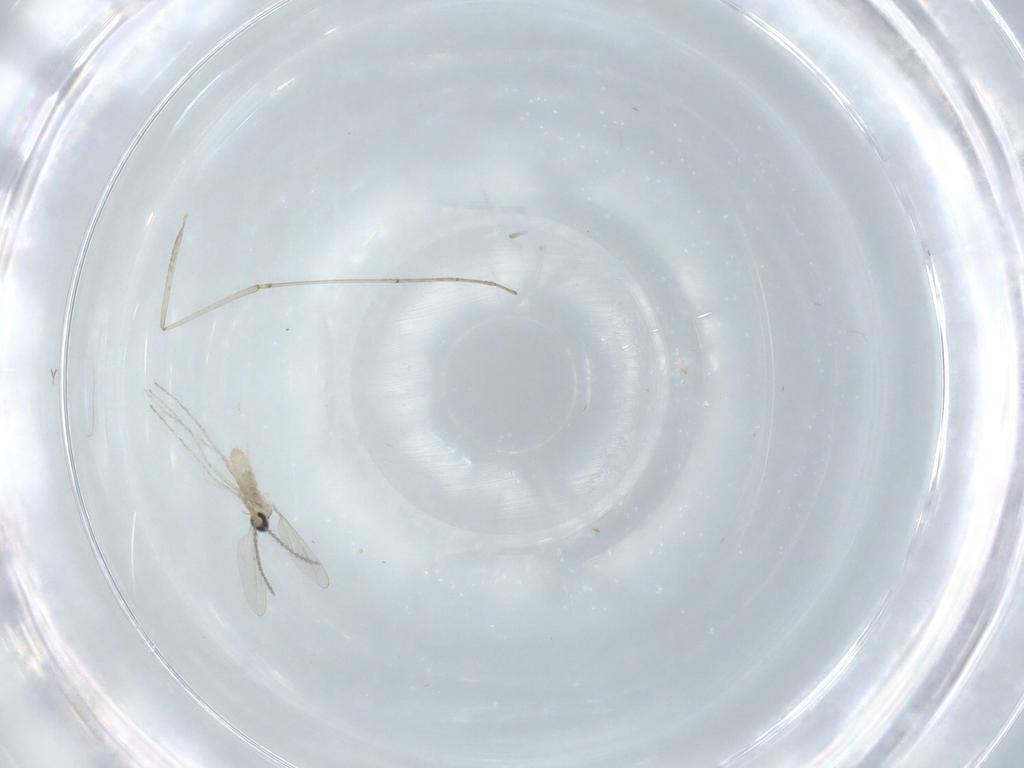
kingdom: Animalia
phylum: Arthropoda
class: Insecta
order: Diptera
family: Cecidomyiidae
